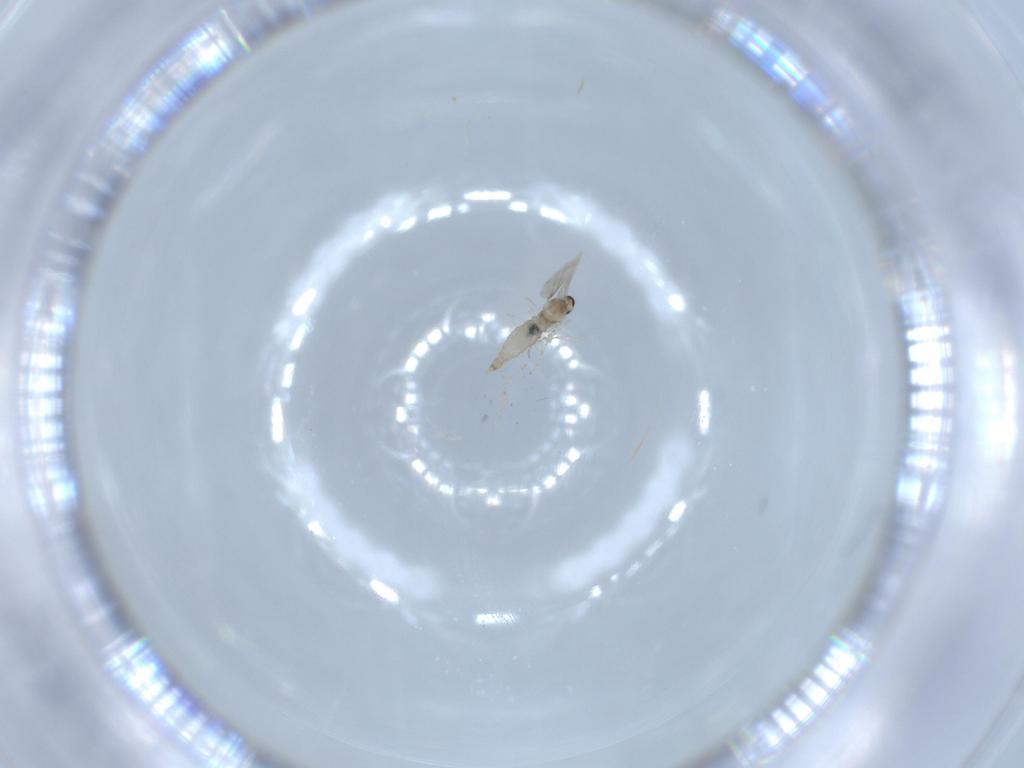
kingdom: Animalia
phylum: Arthropoda
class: Insecta
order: Diptera
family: Cecidomyiidae
